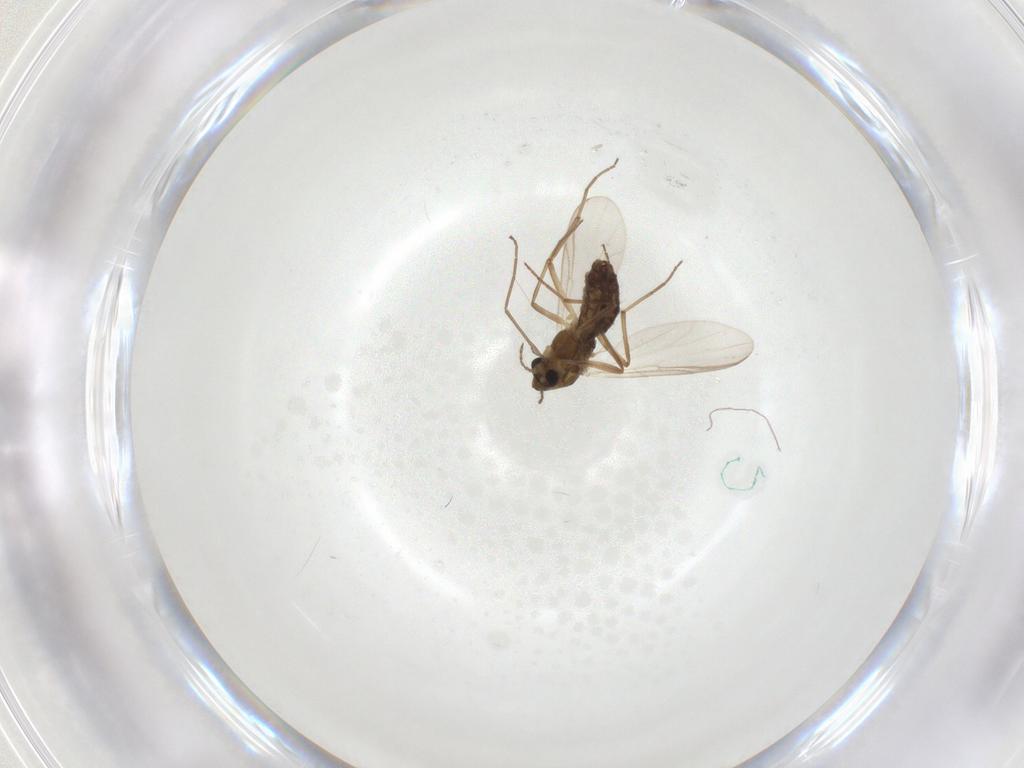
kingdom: Animalia
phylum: Arthropoda
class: Insecta
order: Diptera
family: Chironomidae
